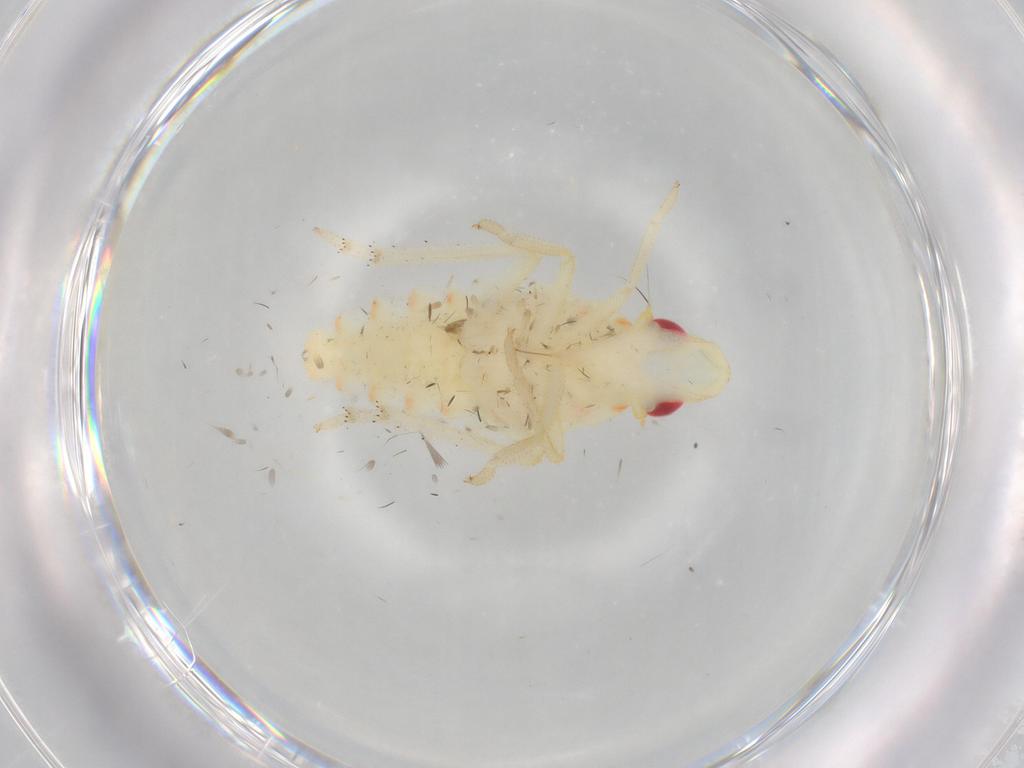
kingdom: Animalia
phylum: Arthropoda
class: Insecta
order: Hemiptera
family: Tropiduchidae
